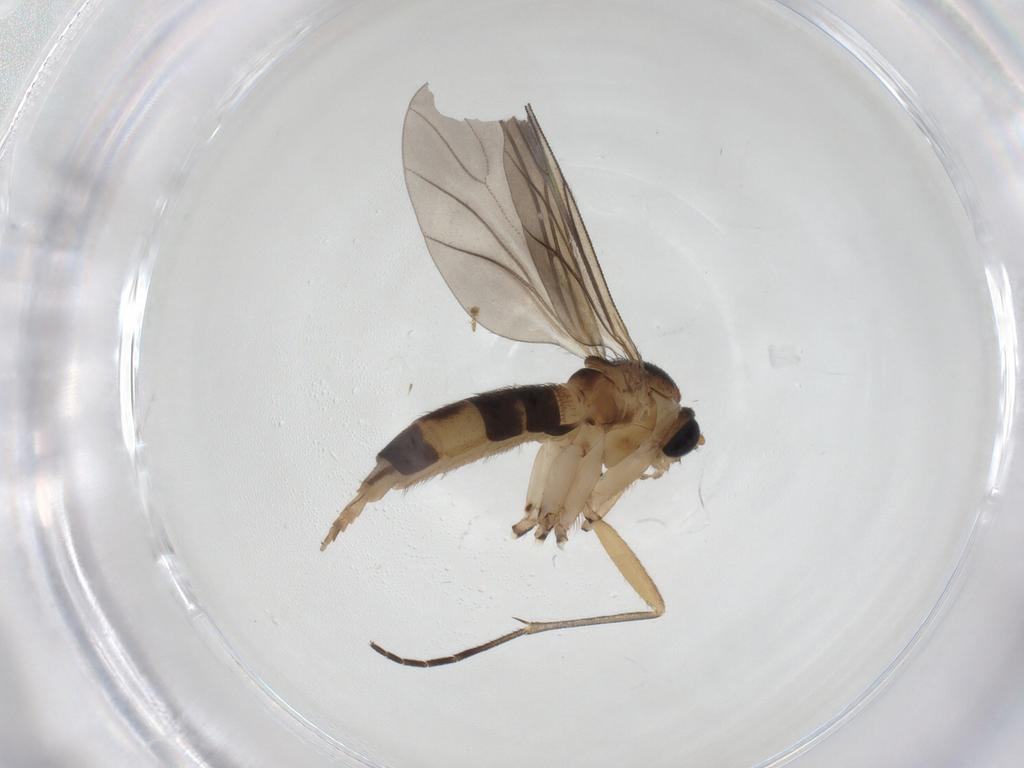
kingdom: Animalia
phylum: Arthropoda
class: Insecta
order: Diptera
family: Sciaridae
